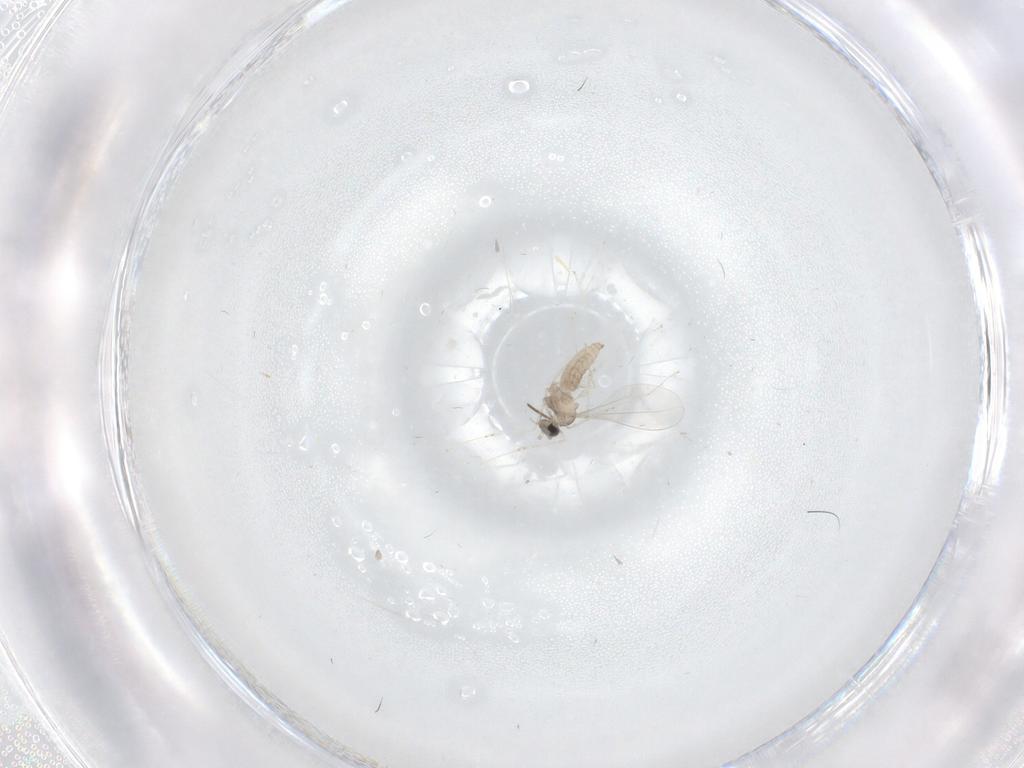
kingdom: Animalia
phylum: Arthropoda
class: Insecta
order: Diptera
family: Cecidomyiidae
